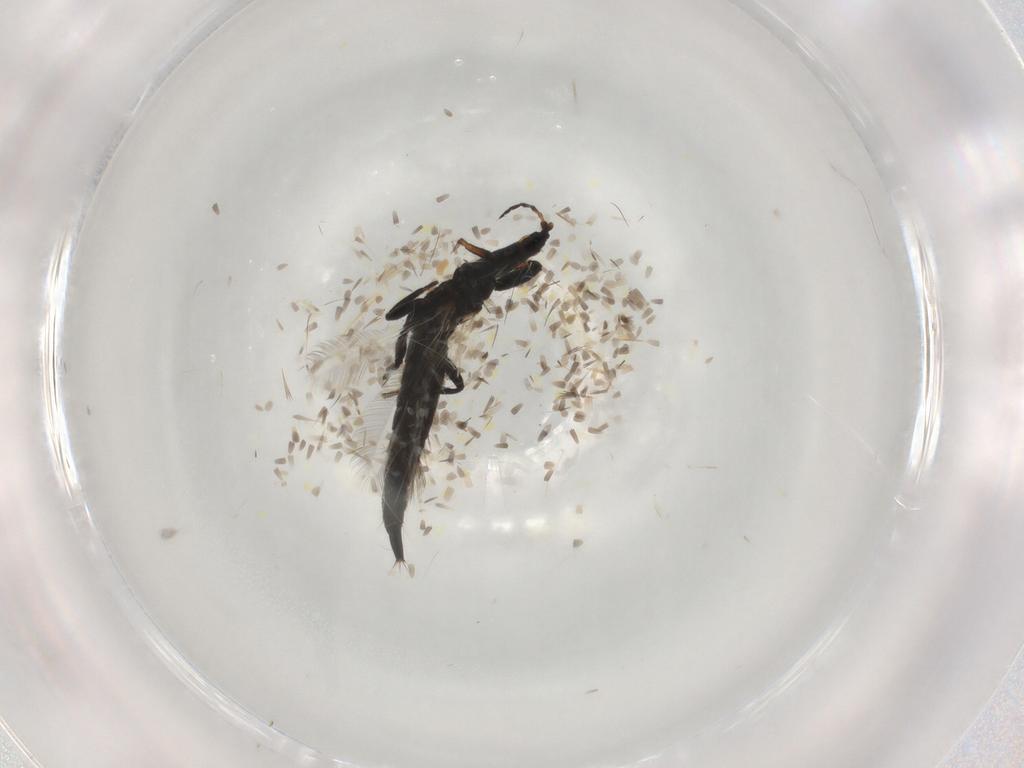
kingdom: Animalia
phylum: Arthropoda
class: Insecta
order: Thysanoptera
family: Phlaeothripidae
